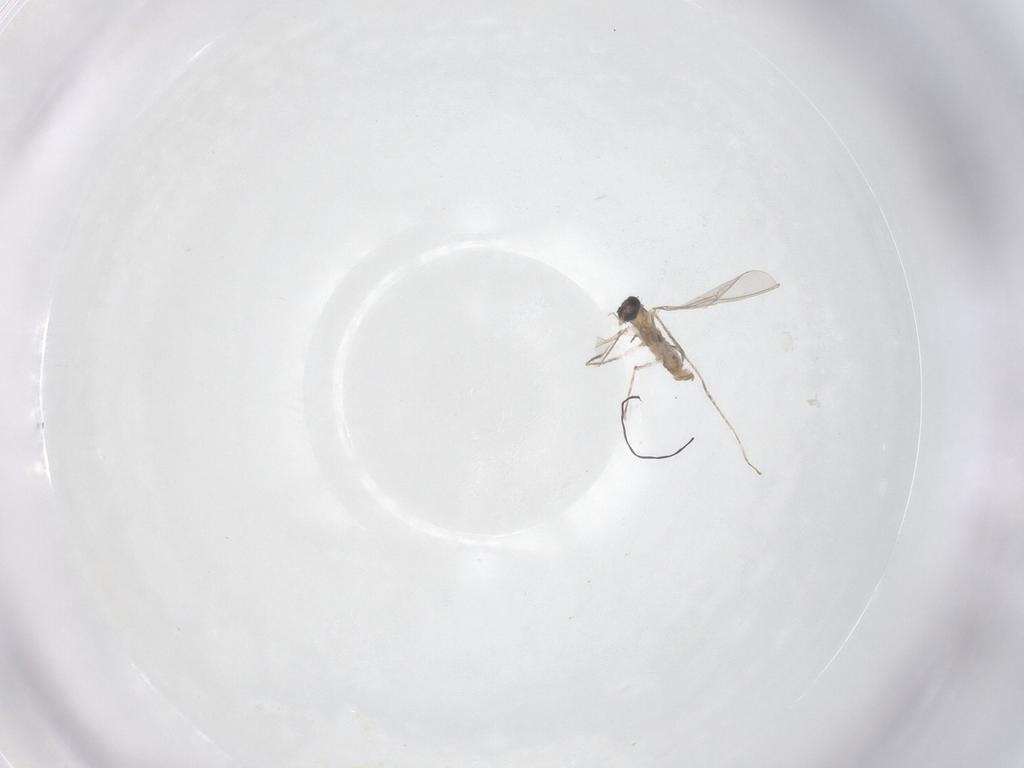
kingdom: Animalia
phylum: Arthropoda
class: Insecta
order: Diptera
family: Cecidomyiidae
